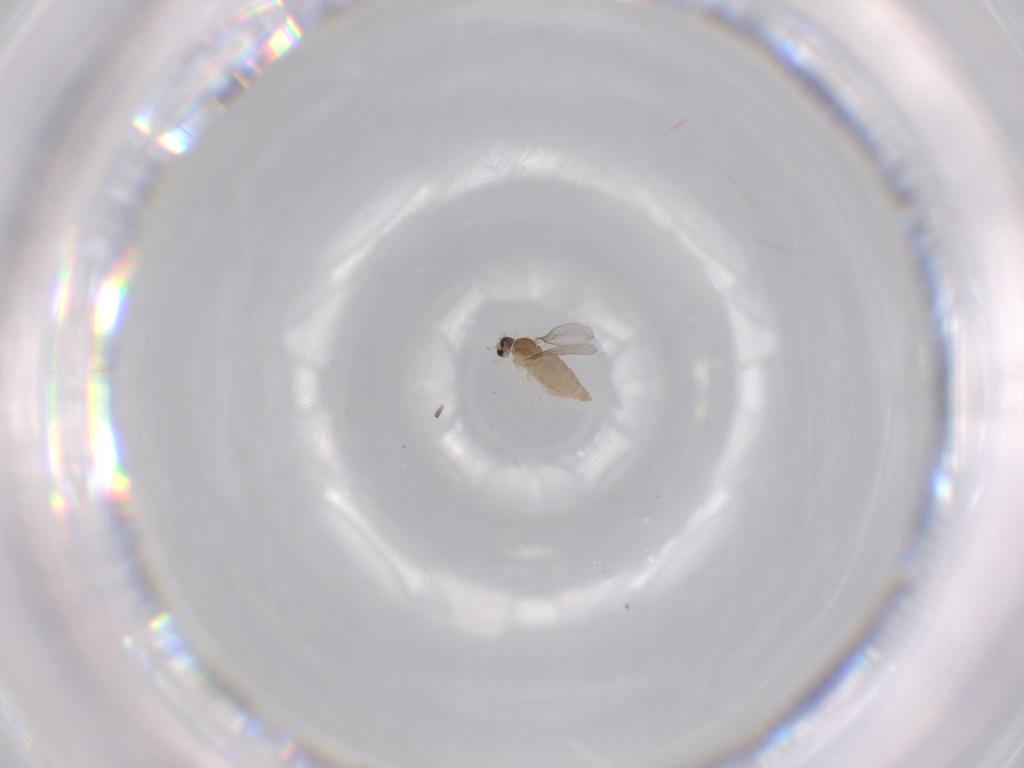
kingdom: Animalia
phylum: Arthropoda
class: Insecta
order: Diptera
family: Cecidomyiidae
